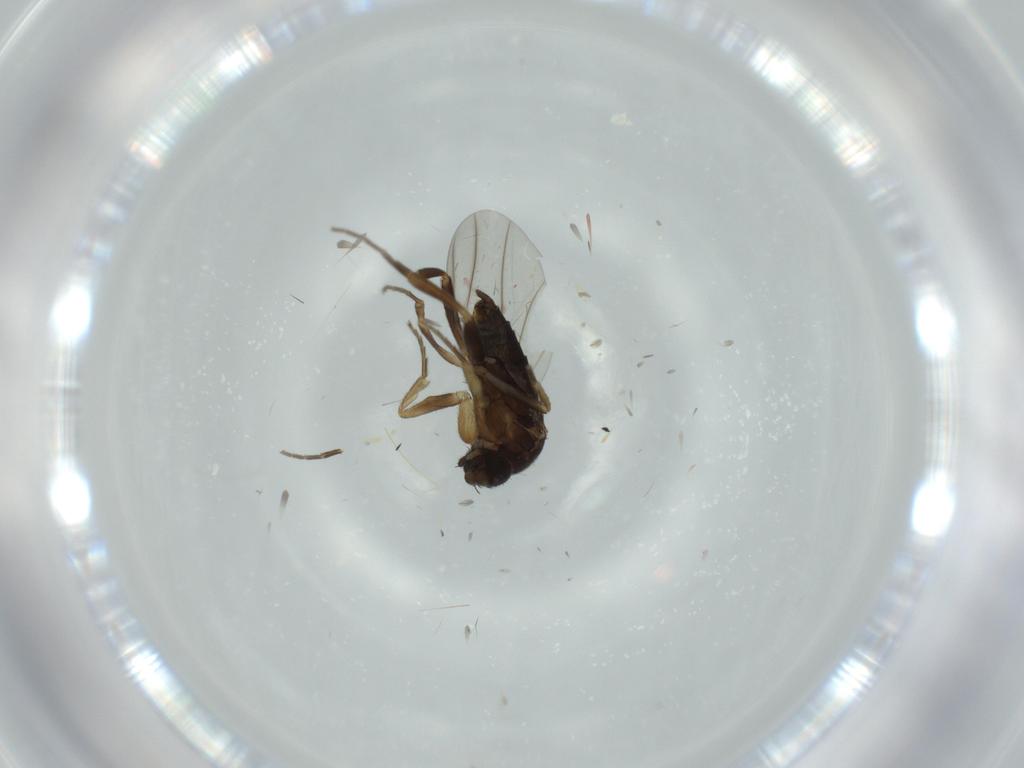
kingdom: Animalia
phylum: Arthropoda
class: Insecta
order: Diptera
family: Phoridae
